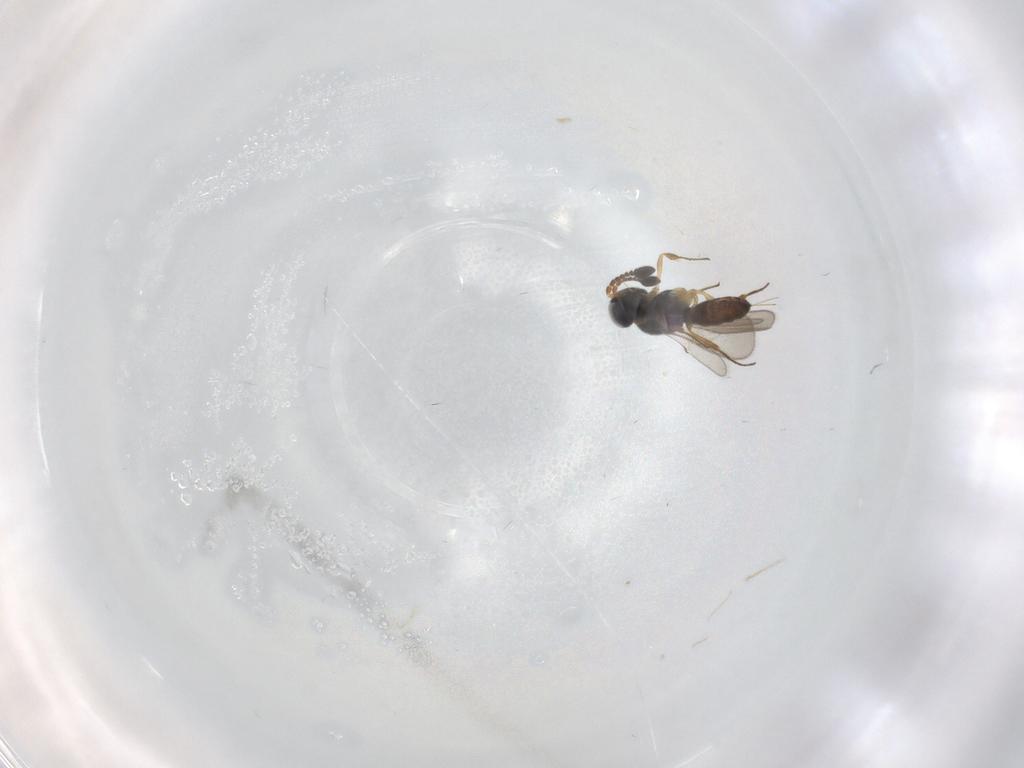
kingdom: Animalia
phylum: Arthropoda
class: Insecta
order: Hymenoptera
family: Scelionidae
